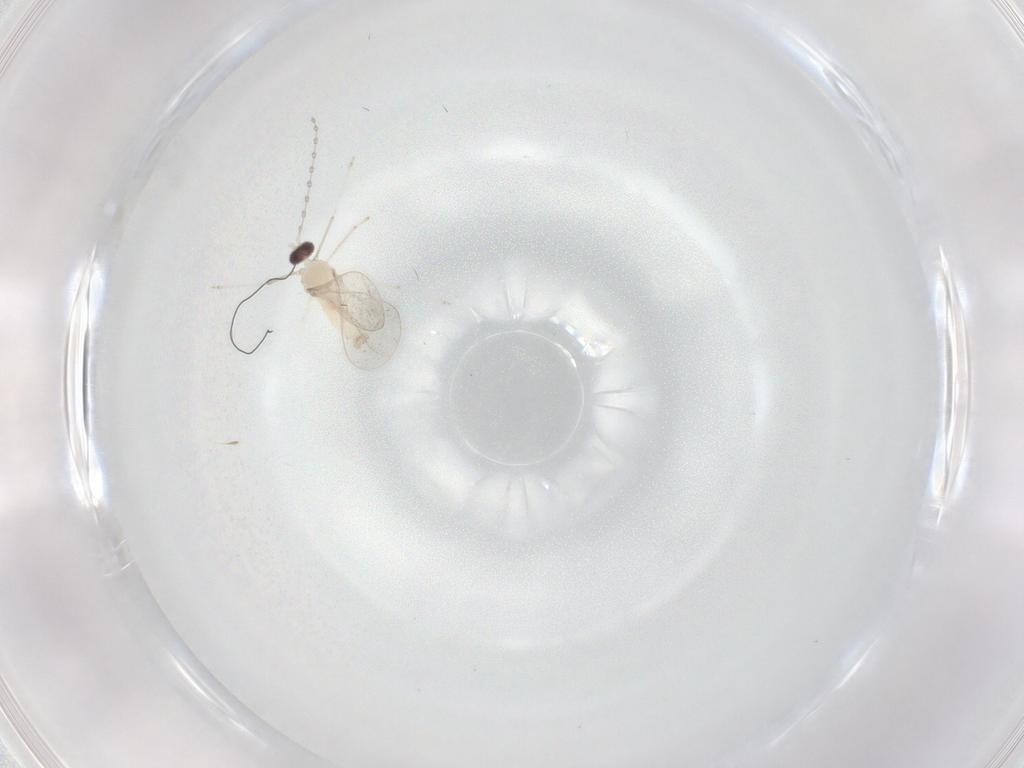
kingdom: Animalia
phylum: Arthropoda
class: Insecta
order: Diptera
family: Cecidomyiidae
